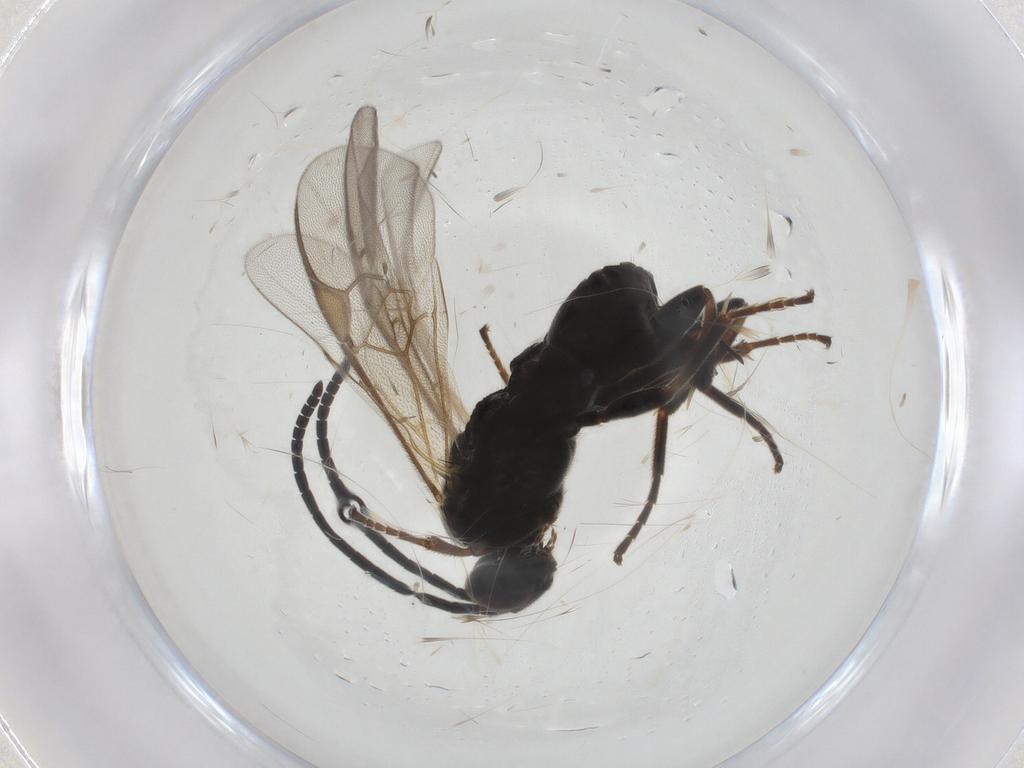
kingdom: Animalia
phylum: Arthropoda
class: Insecta
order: Hymenoptera
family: Braconidae
